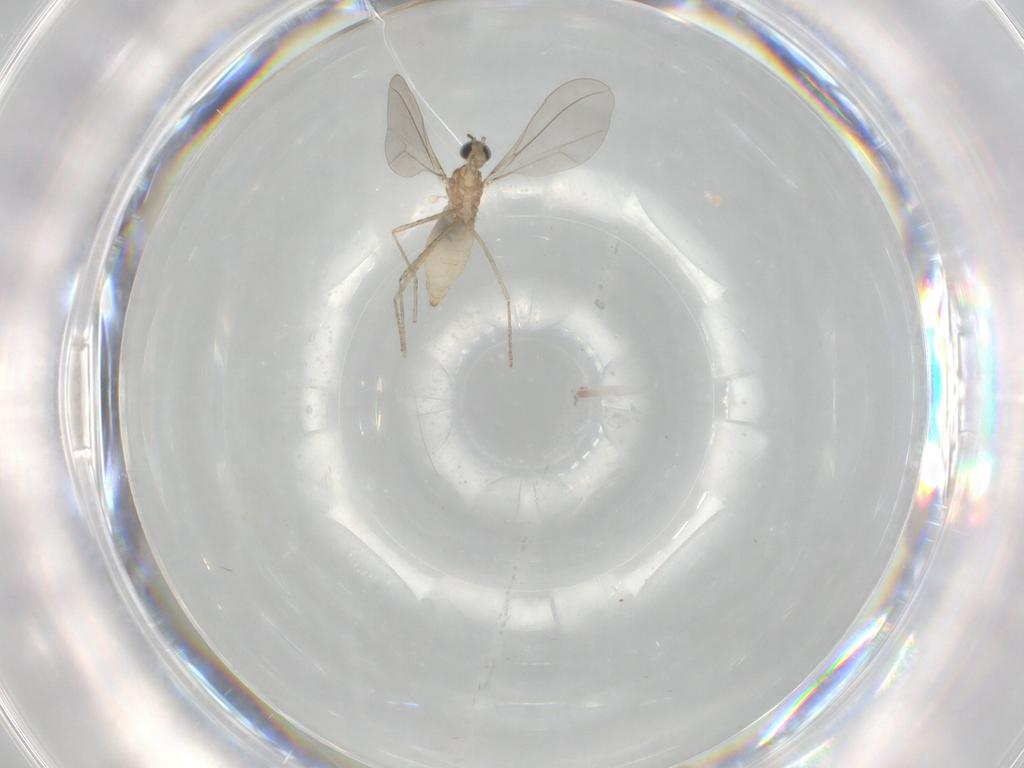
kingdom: Animalia
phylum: Arthropoda
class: Insecta
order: Diptera
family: Cecidomyiidae
